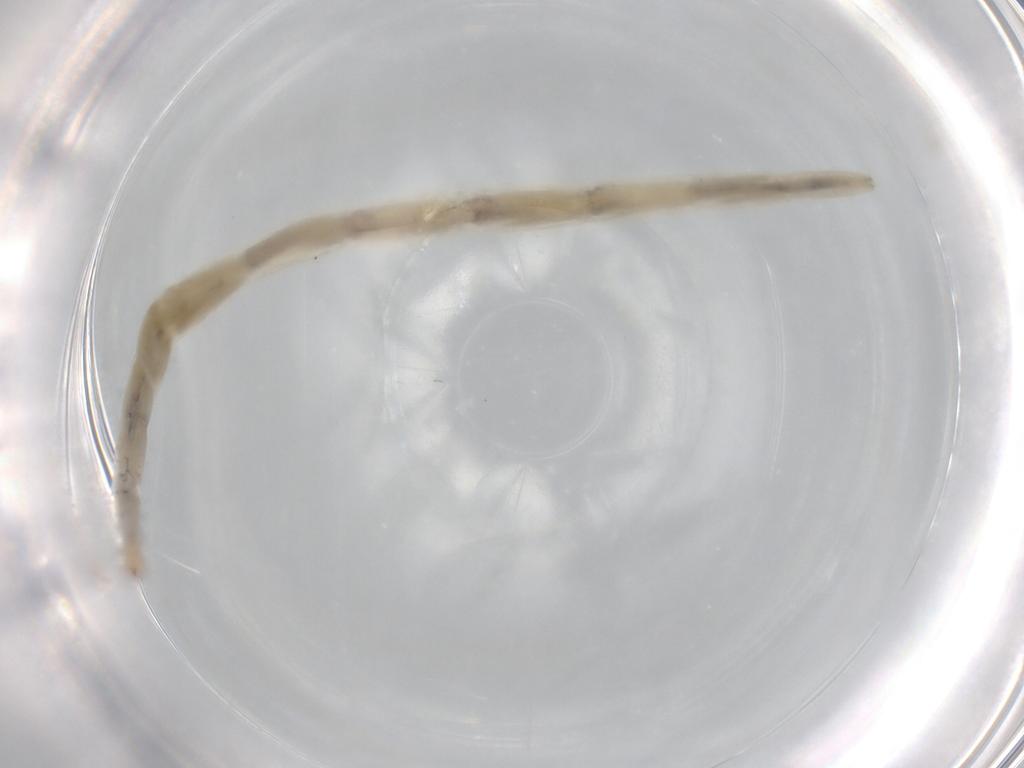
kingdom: Animalia
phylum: Arthropoda
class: Insecta
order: Diptera
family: Ceratopogonidae
